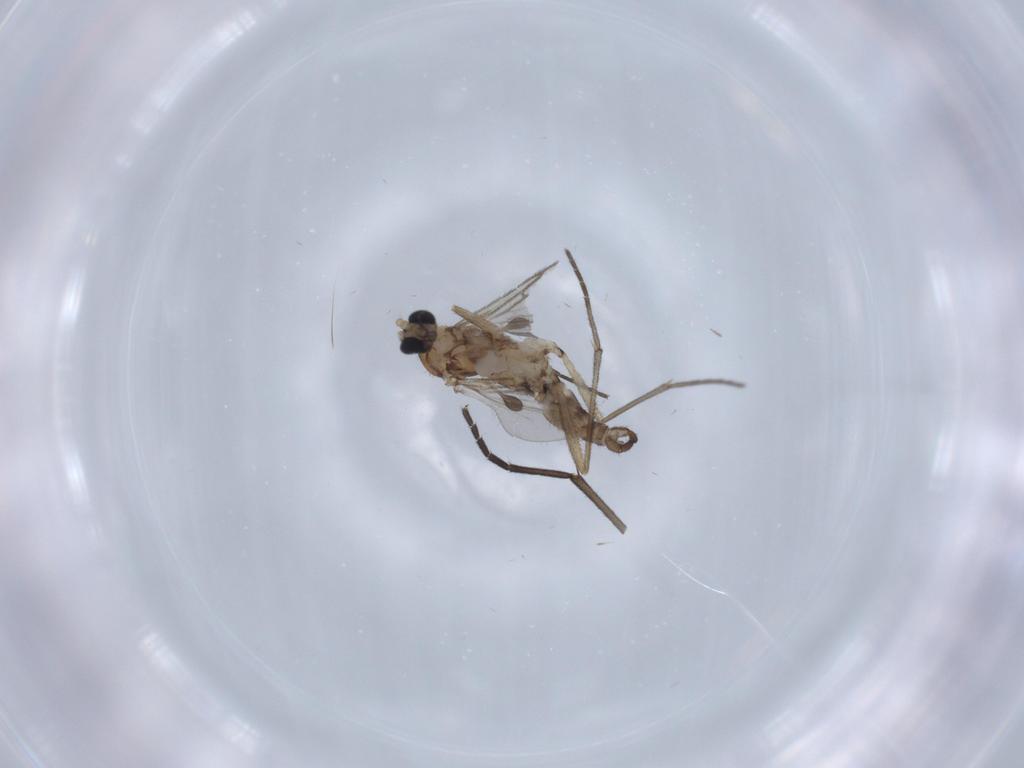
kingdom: Animalia
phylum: Arthropoda
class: Insecta
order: Diptera
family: Sciaridae
